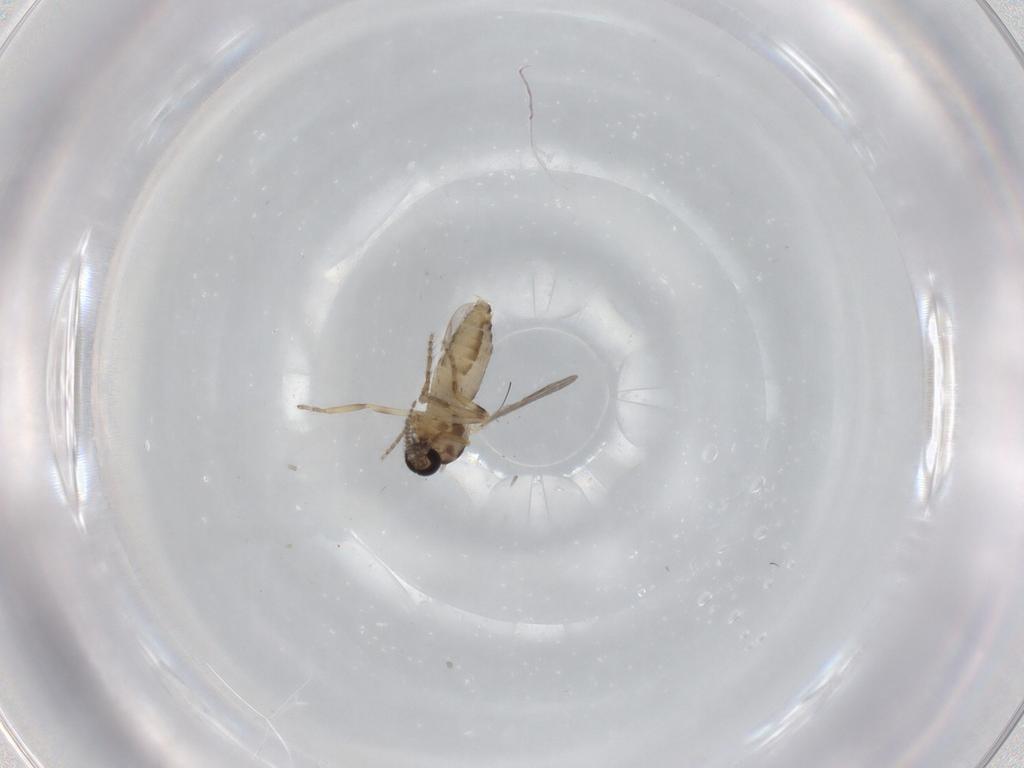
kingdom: Animalia
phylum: Arthropoda
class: Insecta
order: Diptera
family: Ceratopogonidae
